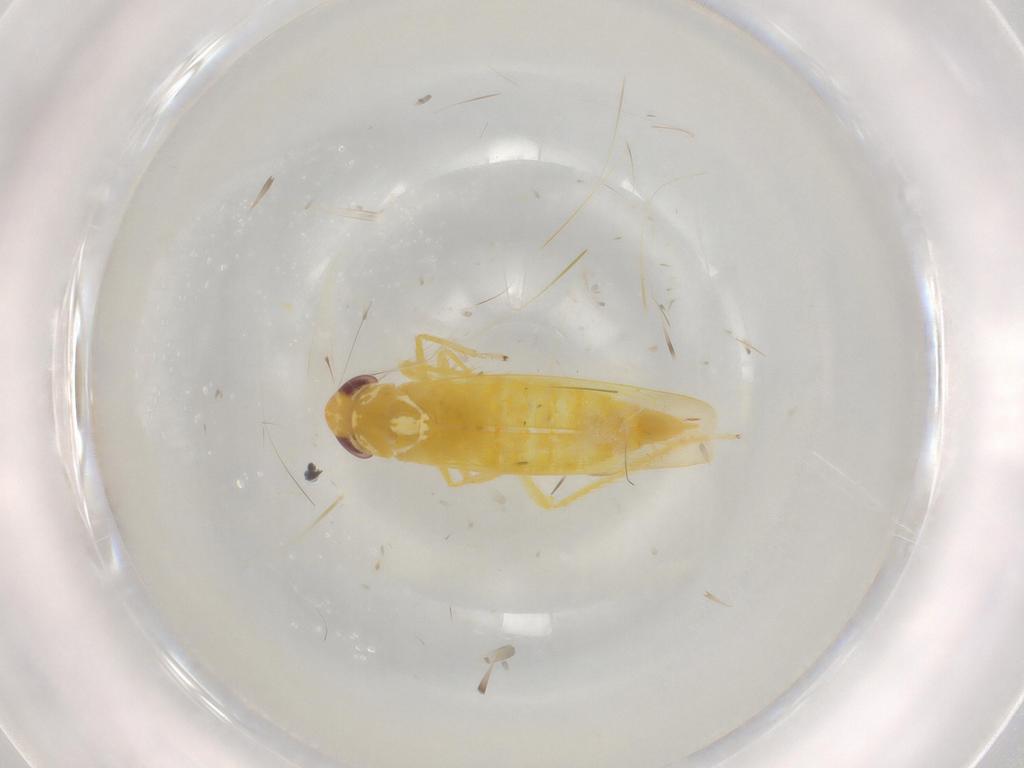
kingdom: Animalia
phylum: Arthropoda
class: Insecta
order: Hemiptera
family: Cicadellidae
